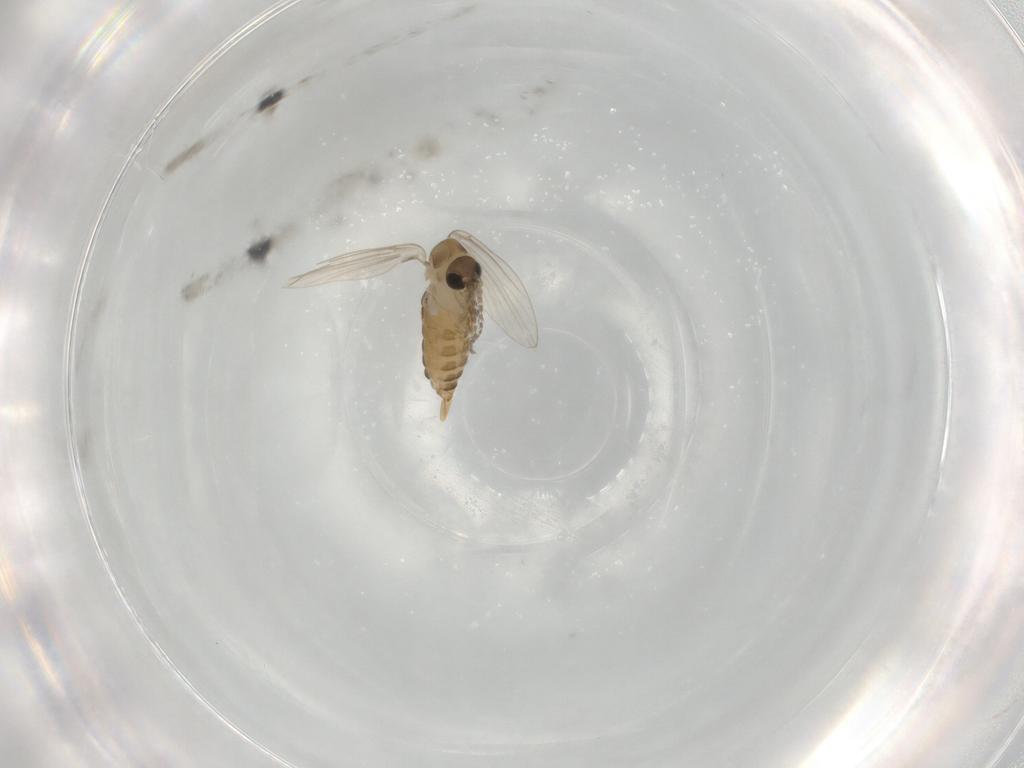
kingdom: Animalia
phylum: Arthropoda
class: Insecta
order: Diptera
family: Psychodidae
